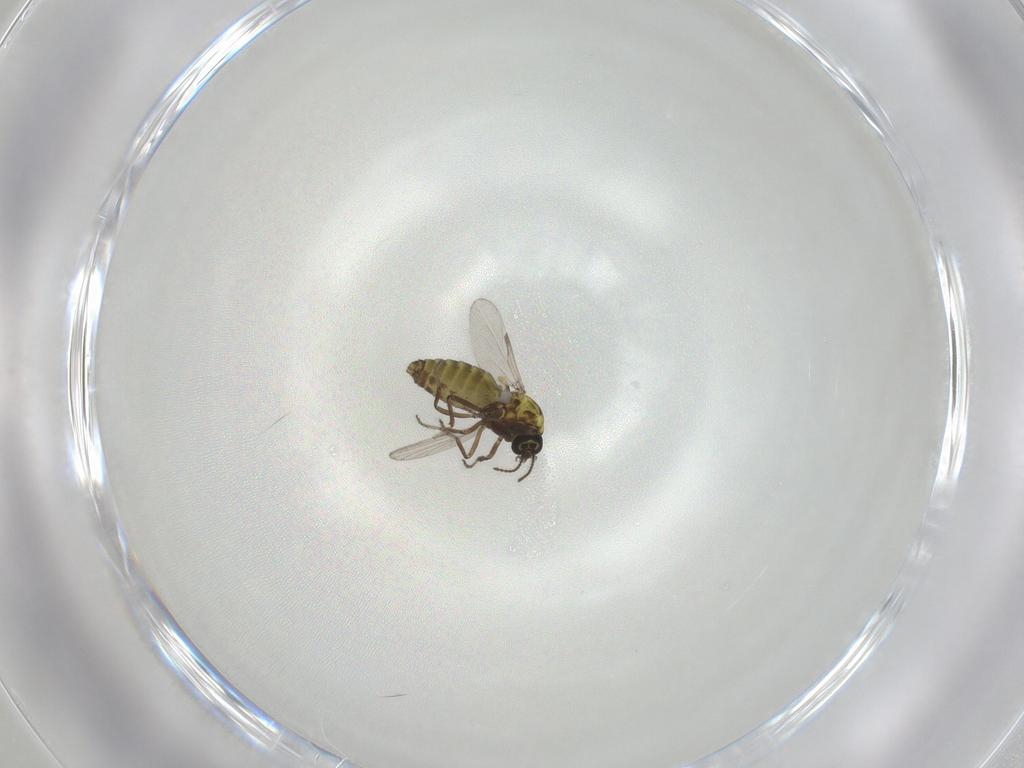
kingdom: Animalia
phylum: Arthropoda
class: Insecta
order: Diptera
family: Ceratopogonidae
